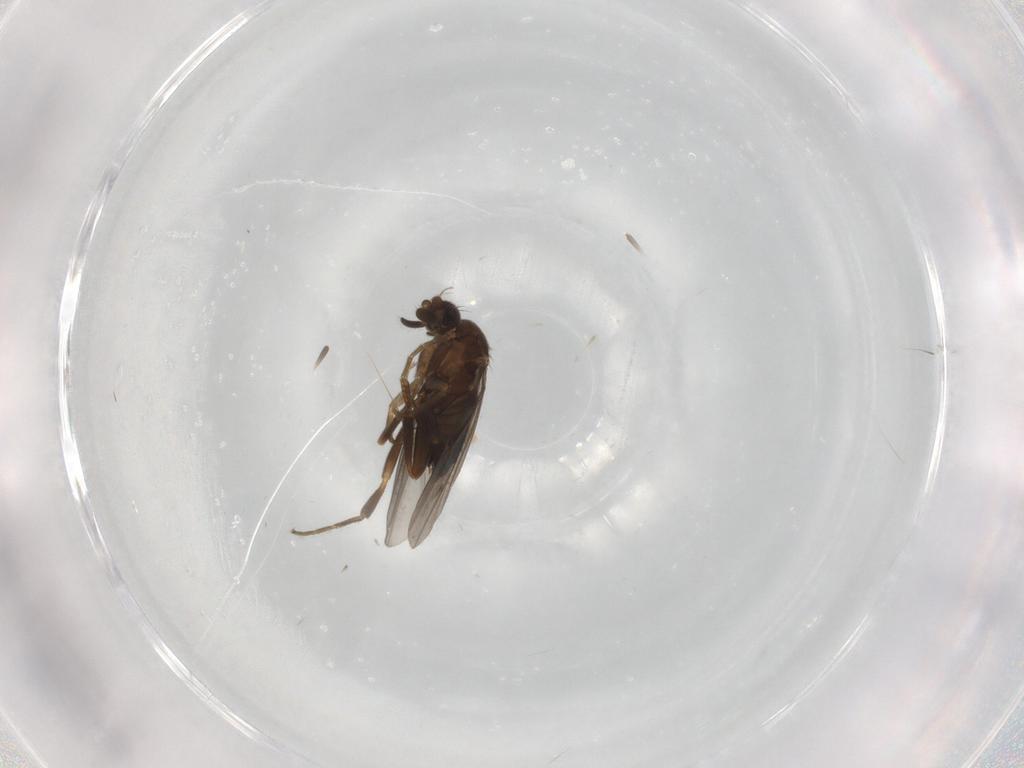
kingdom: Animalia
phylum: Arthropoda
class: Insecta
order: Diptera
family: Phoridae
